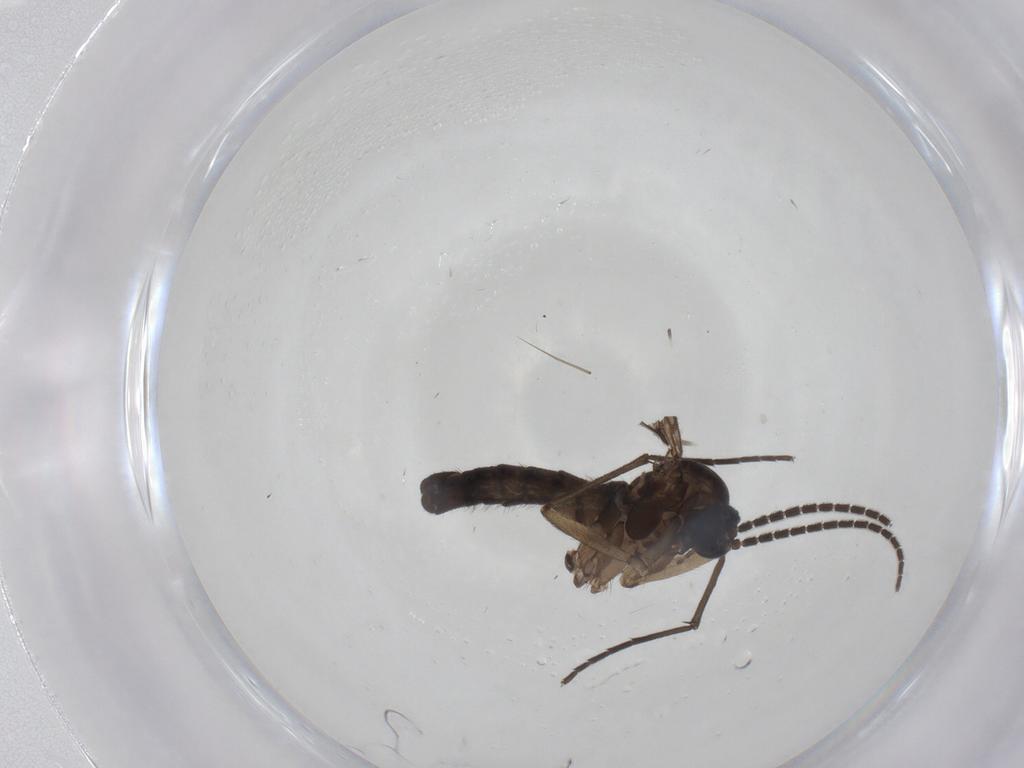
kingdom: Animalia
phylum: Arthropoda
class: Insecta
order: Diptera
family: Sciaridae
